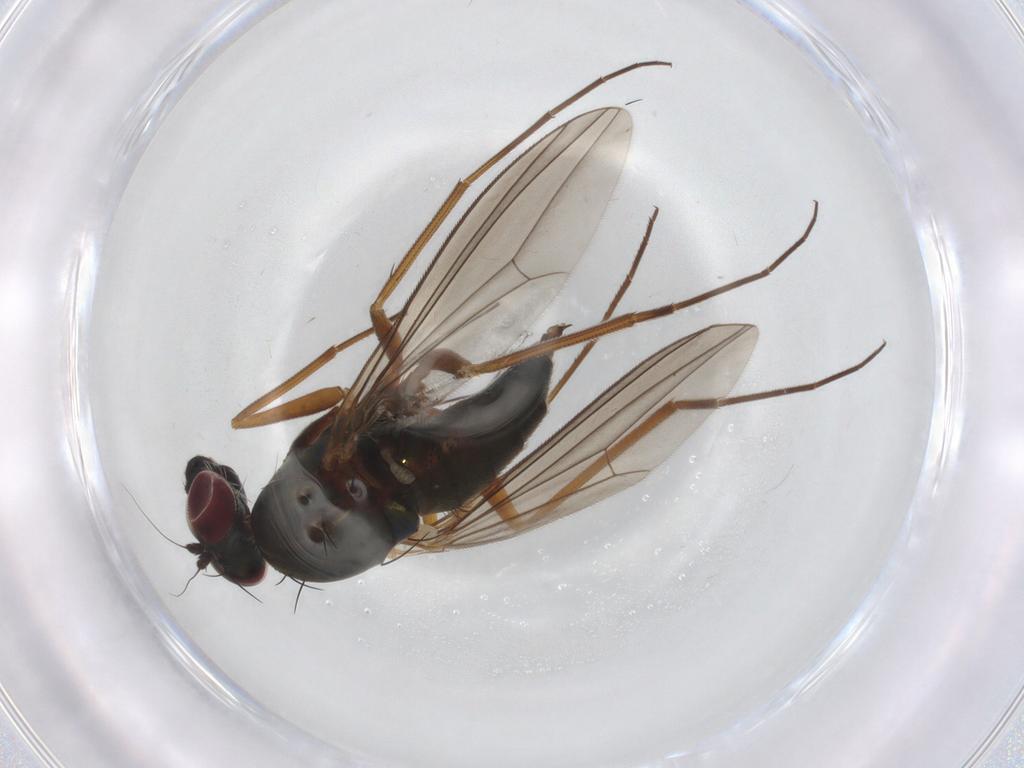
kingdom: Animalia
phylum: Arthropoda
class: Insecta
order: Diptera
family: Dolichopodidae
